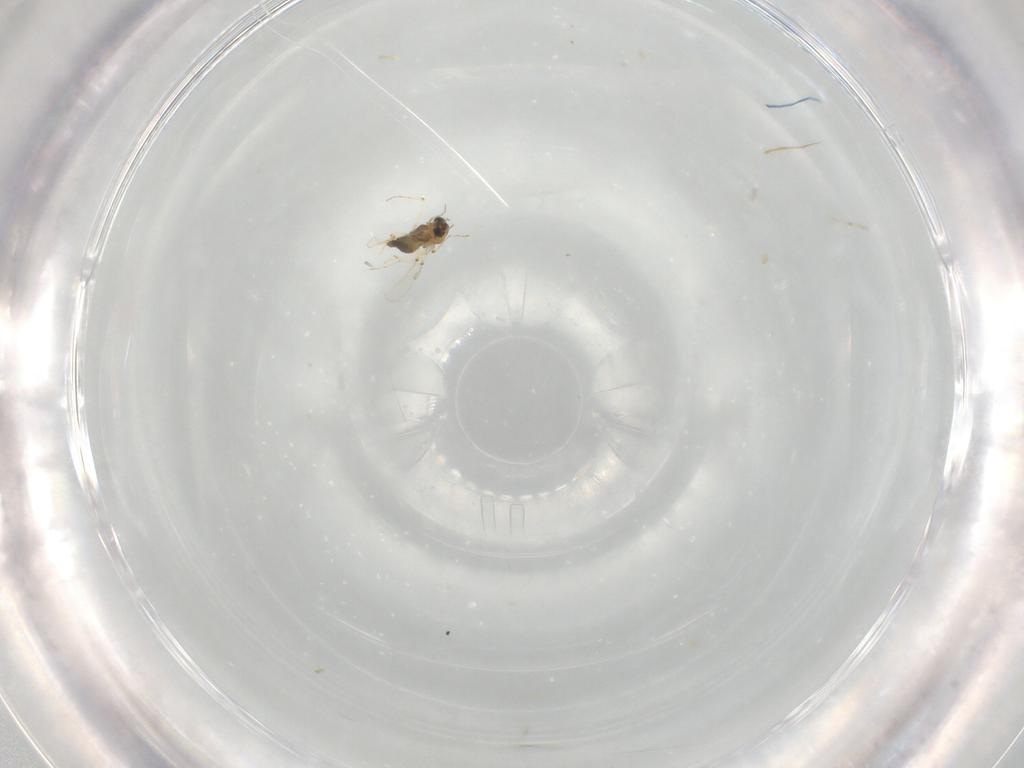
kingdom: Animalia
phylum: Arthropoda
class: Insecta
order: Diptera
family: Chironomidae
